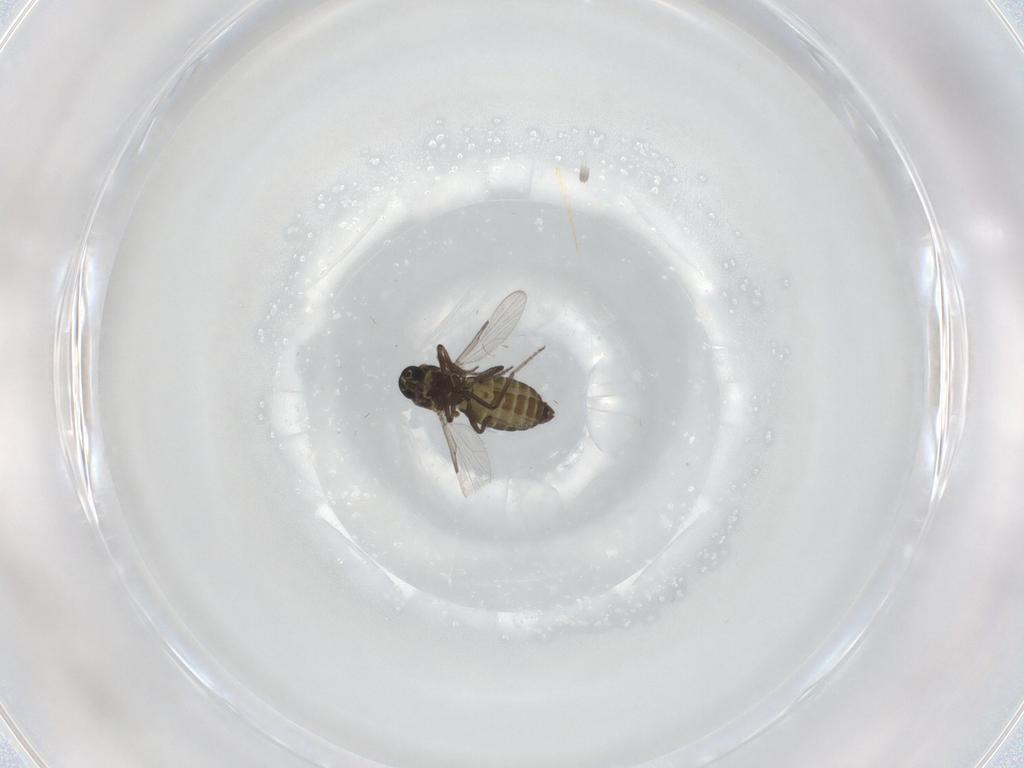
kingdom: Animalia
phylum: Arthropoda
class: Insecta
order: Diptera
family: Ceratopogonidae
